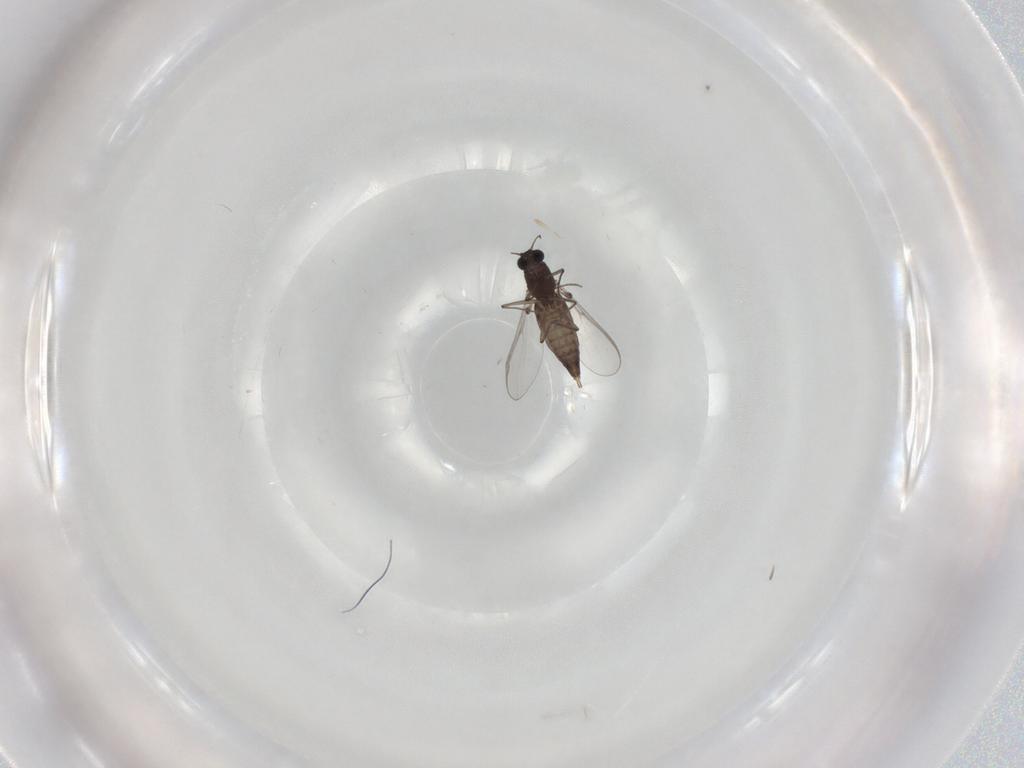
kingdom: Animalia
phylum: Arthropoda
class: Insecta
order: Diptera
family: Chironomidae
